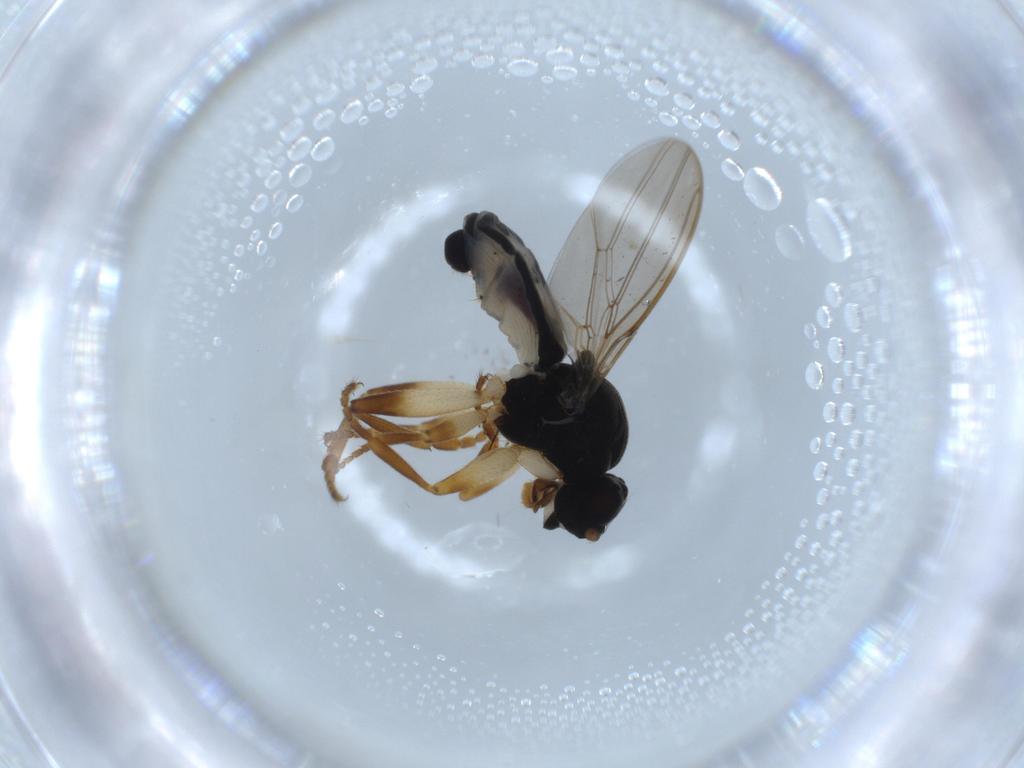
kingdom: Animalia
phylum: Arthropoda
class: Insecta
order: Diptera
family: Sphaeroceridae
